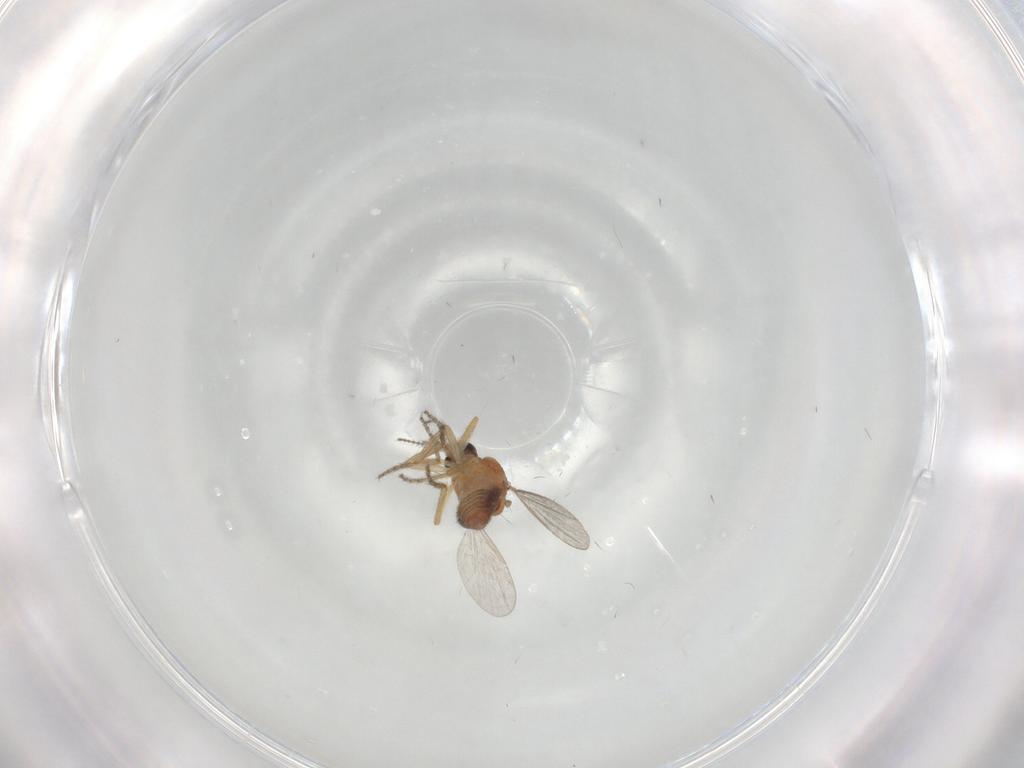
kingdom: Animalia
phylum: Arthropoda
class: Insecta
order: Diptera
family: Ceratopogonidae
